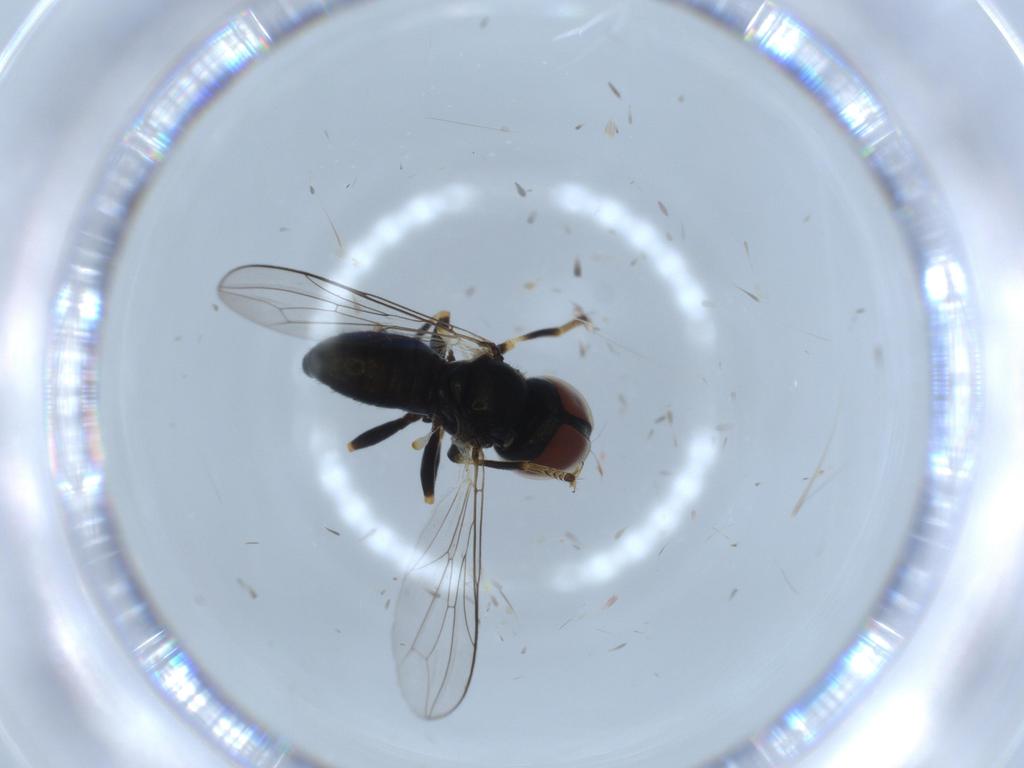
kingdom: Animalia
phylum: Arthropoda
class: Insecta
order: Diptera
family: Pipunculidae
